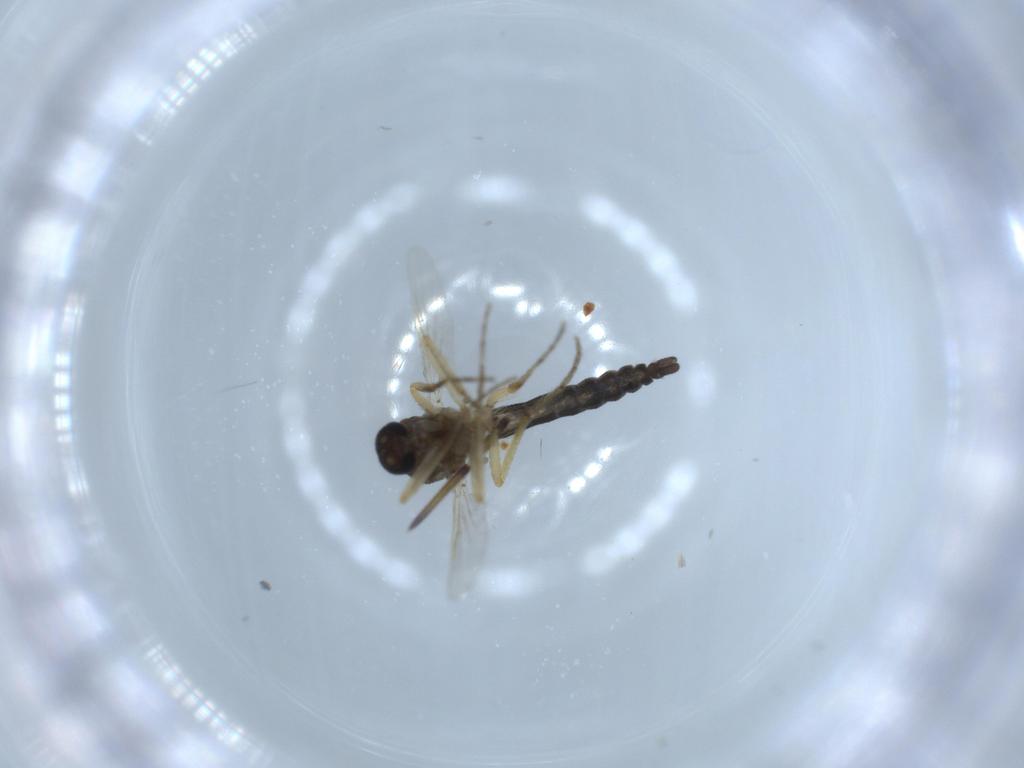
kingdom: Animalia
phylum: Arthropoda
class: Insecta
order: Diptera
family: Ceratopogonidae
